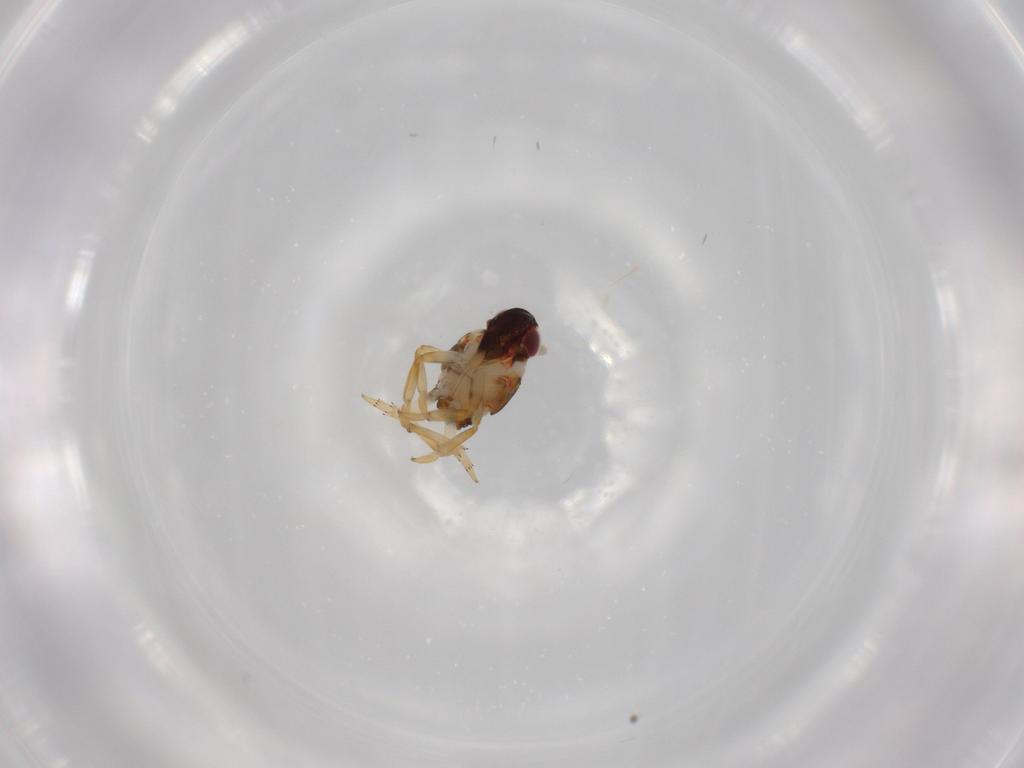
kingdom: Animalia
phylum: Arthropoda
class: Insecta
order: Hemiptera
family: Issidae
